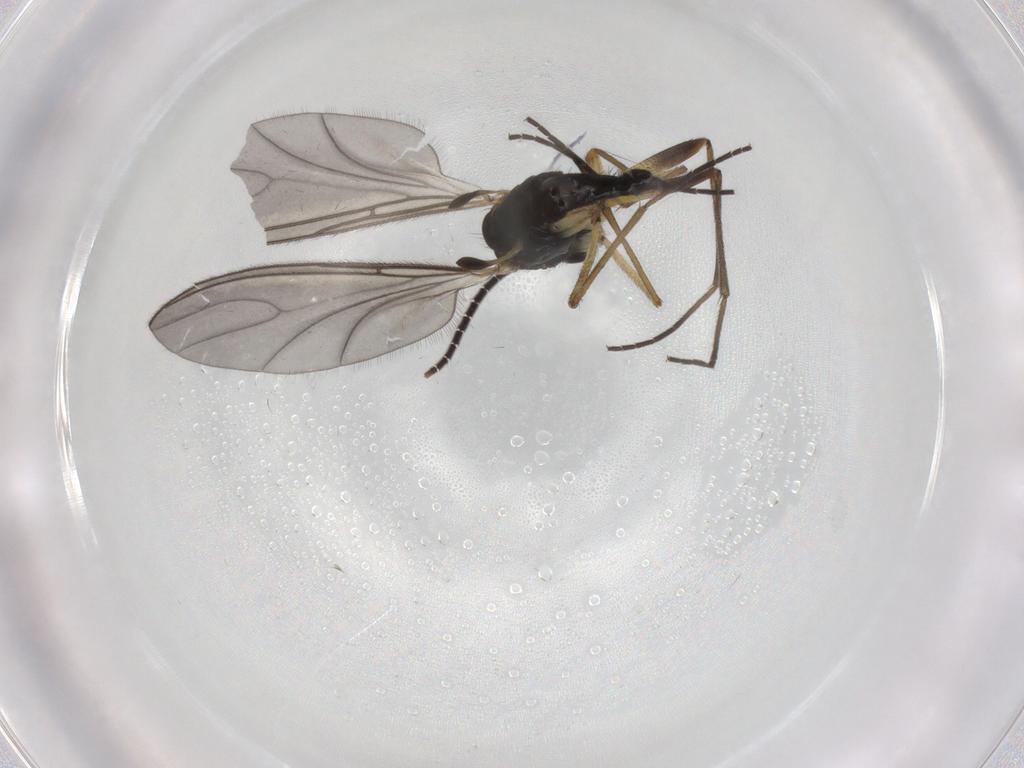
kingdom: Animalia
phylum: Arthropoda
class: Insecta
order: Diptera
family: Sciaridae
